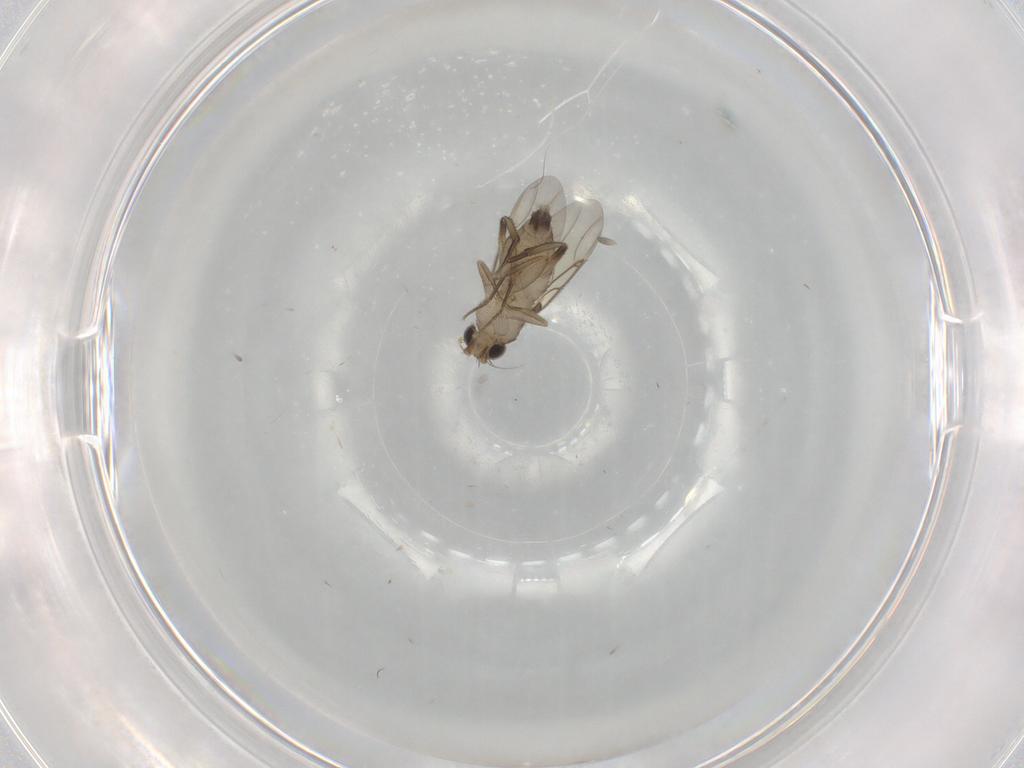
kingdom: Animalia
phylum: Arthropoda
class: Insecta
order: Diptera
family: Phoridae
